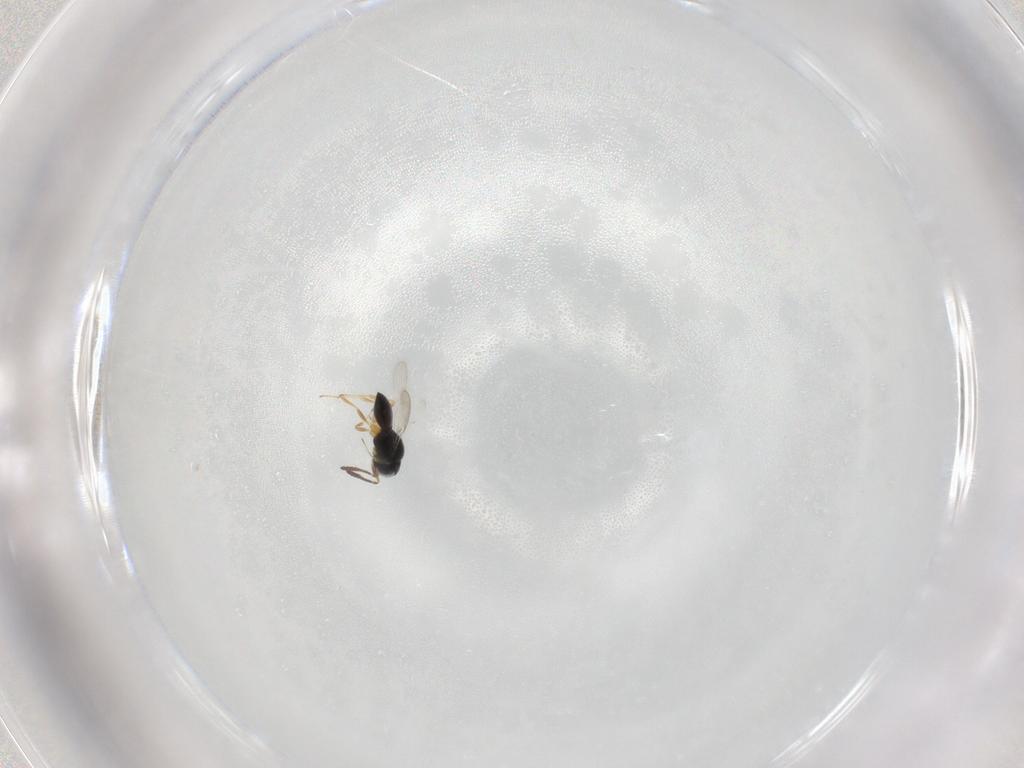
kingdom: Animalia
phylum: Arthropoda
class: Insecta
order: Hymenoptera
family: Scelionidae
